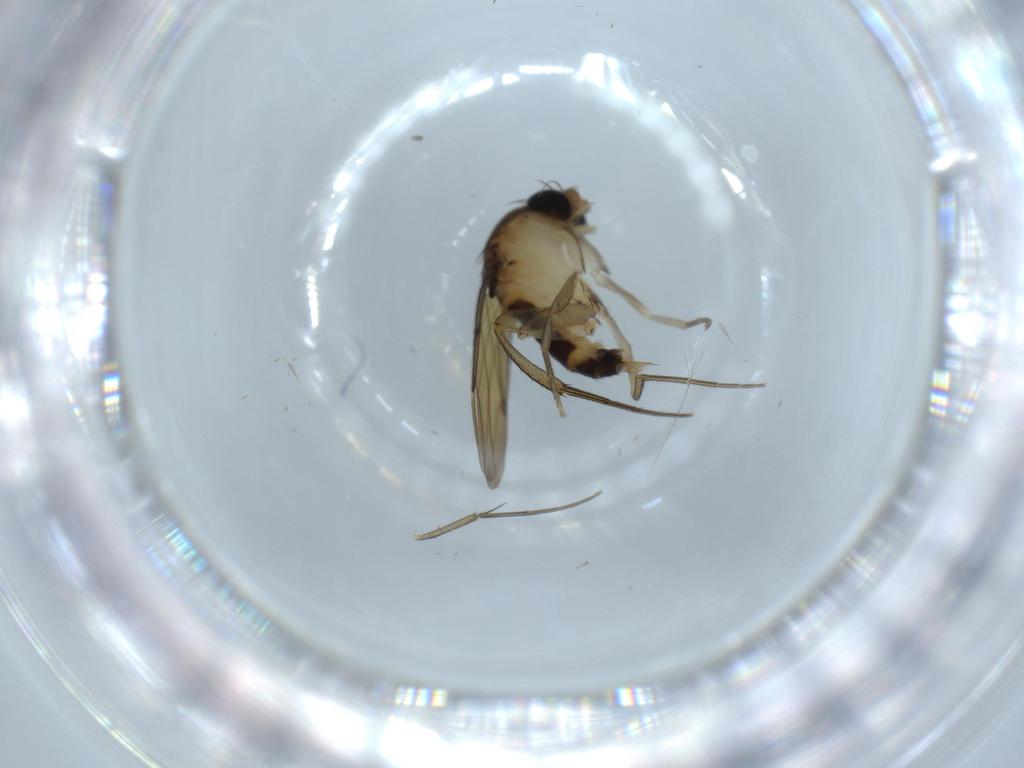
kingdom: Animalia
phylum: Arthropoda
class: Insecta
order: Diptera
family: Phoridae
